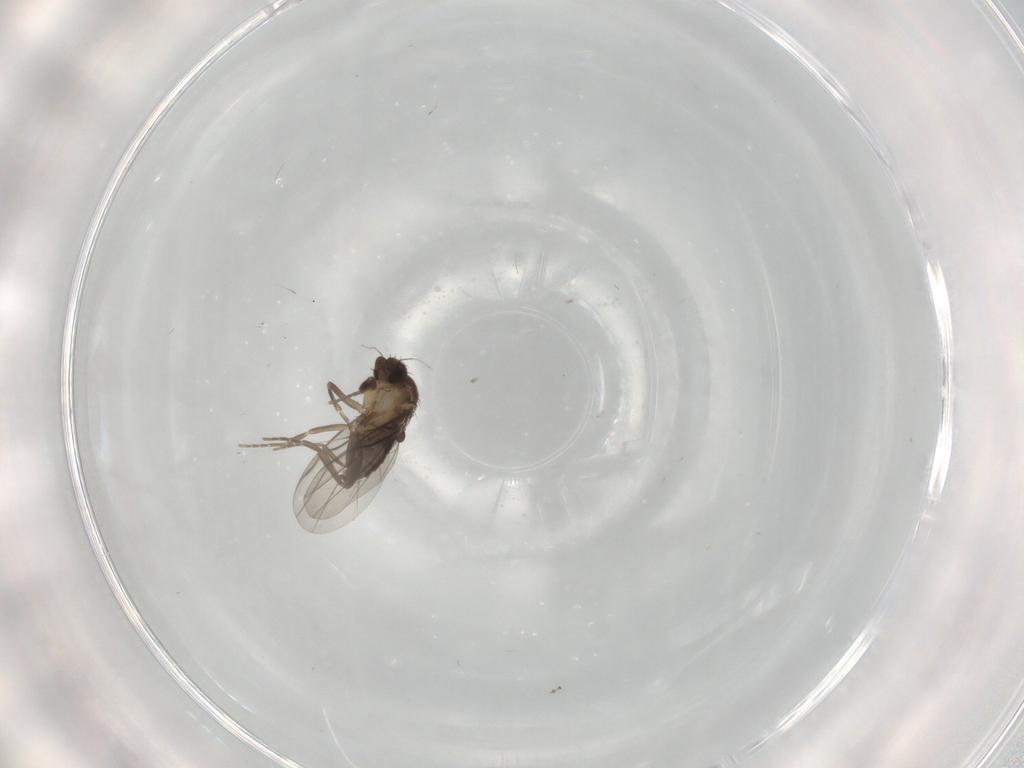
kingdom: Animalia
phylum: Arthropoda
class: Insecta
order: Diptera
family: Cecidomyiidae
